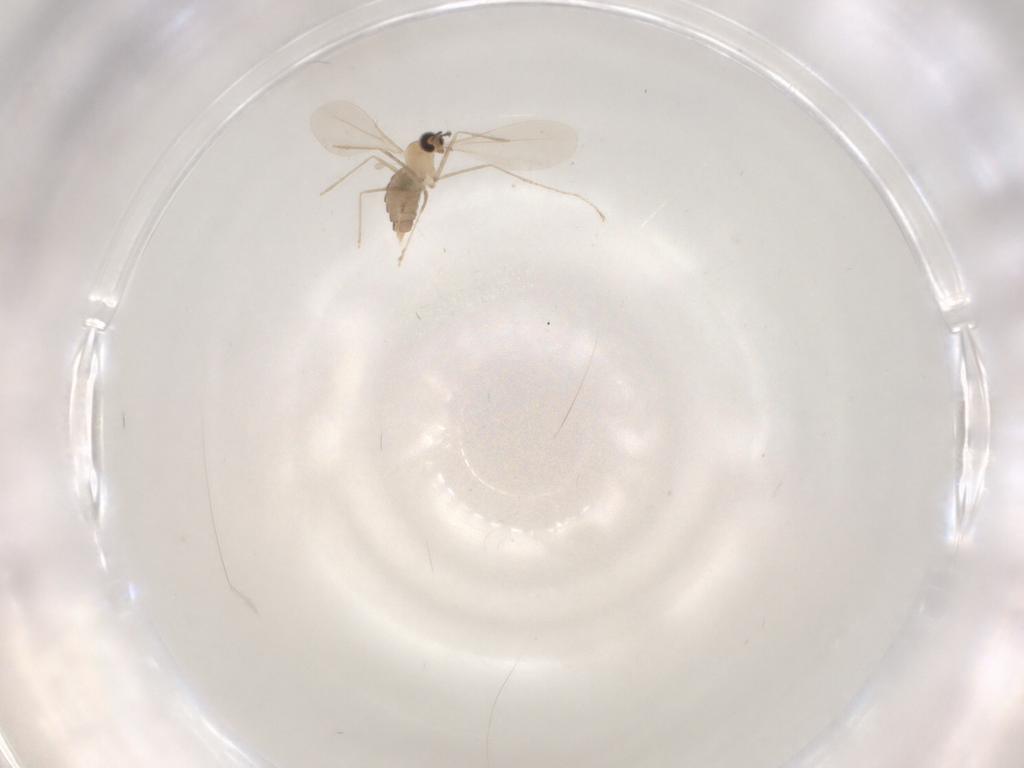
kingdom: Animalia
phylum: Arthropoda
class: Insecta
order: Diptera
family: Cecidomyiidae
